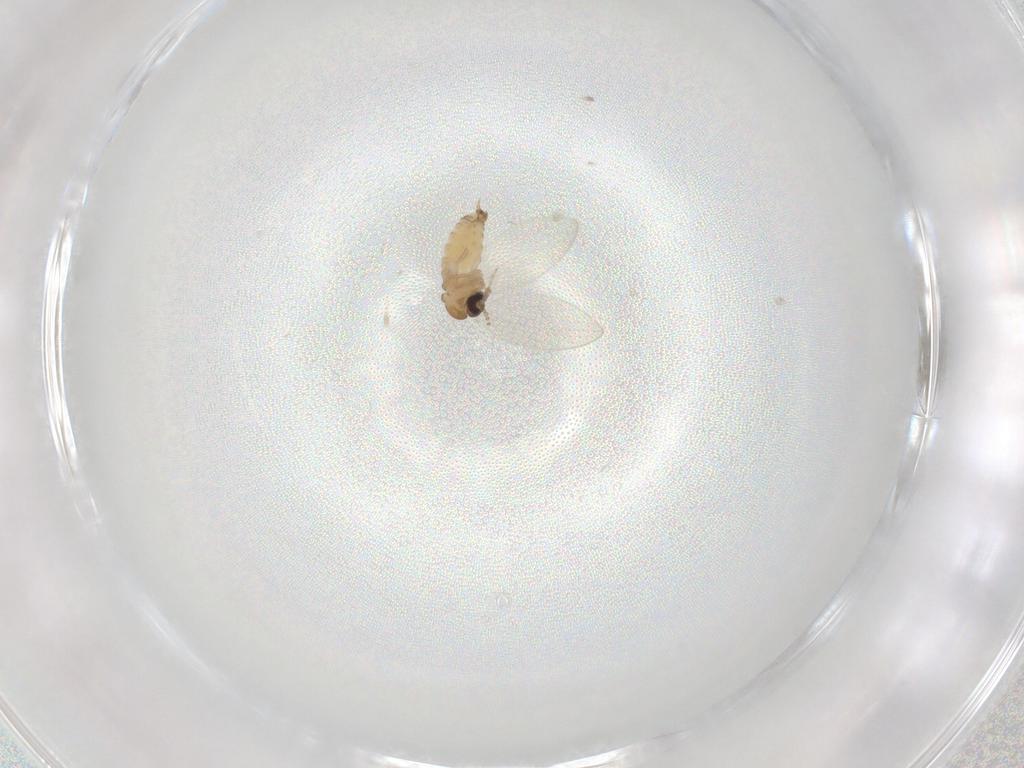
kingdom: Animalia
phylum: Arthropoda
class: Insecta
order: Diptera
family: Psychodidae
